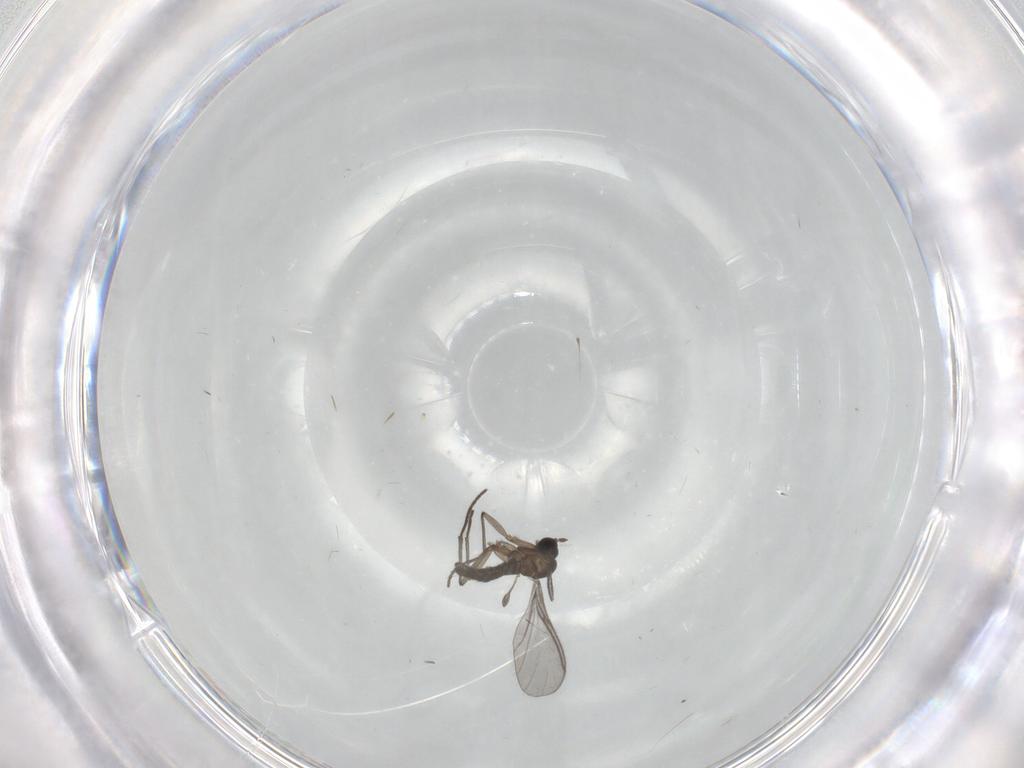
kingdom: Animalia
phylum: Arthropoda
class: Insecta
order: Diptera
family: Sciaridae
